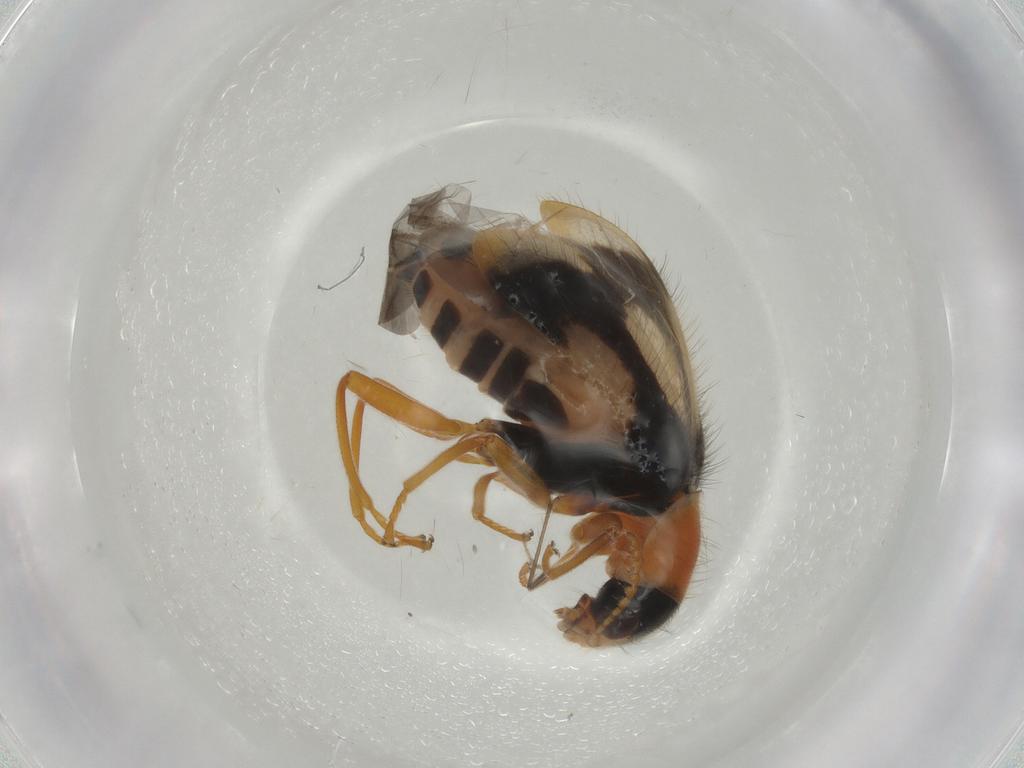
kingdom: Animalia
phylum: Arthropoda
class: Insecta
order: Coleoptera
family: Melyridae
